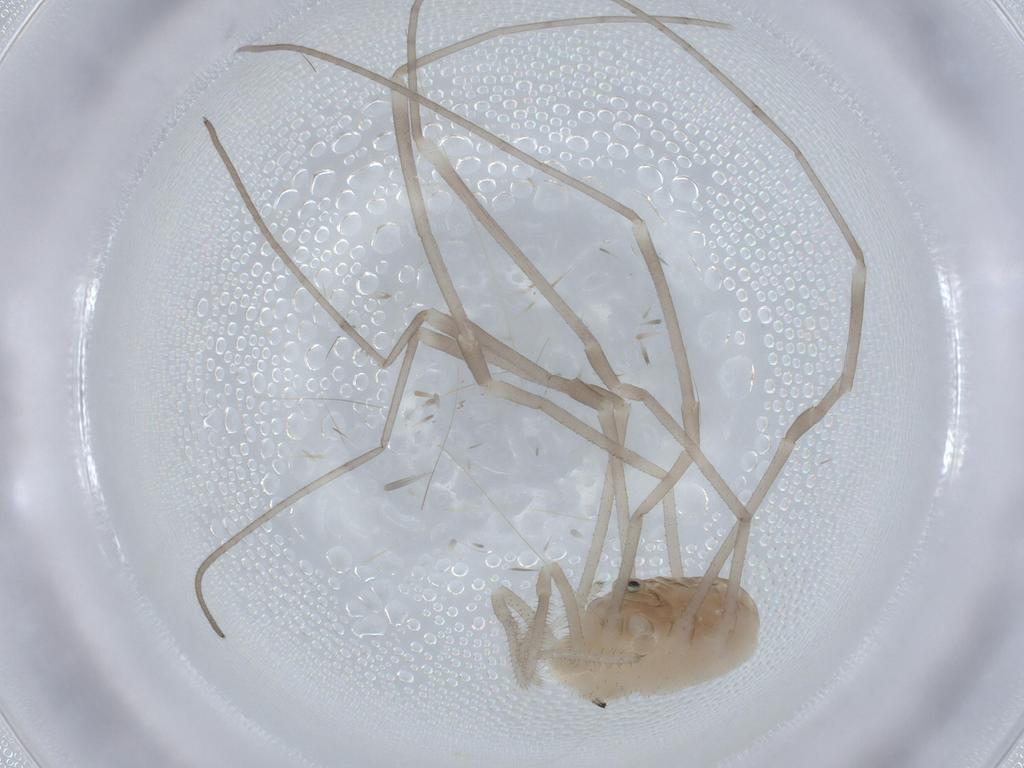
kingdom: Animalia
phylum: Arthropoda
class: Arachnida
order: Opiliones
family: Sclerosomatidae
